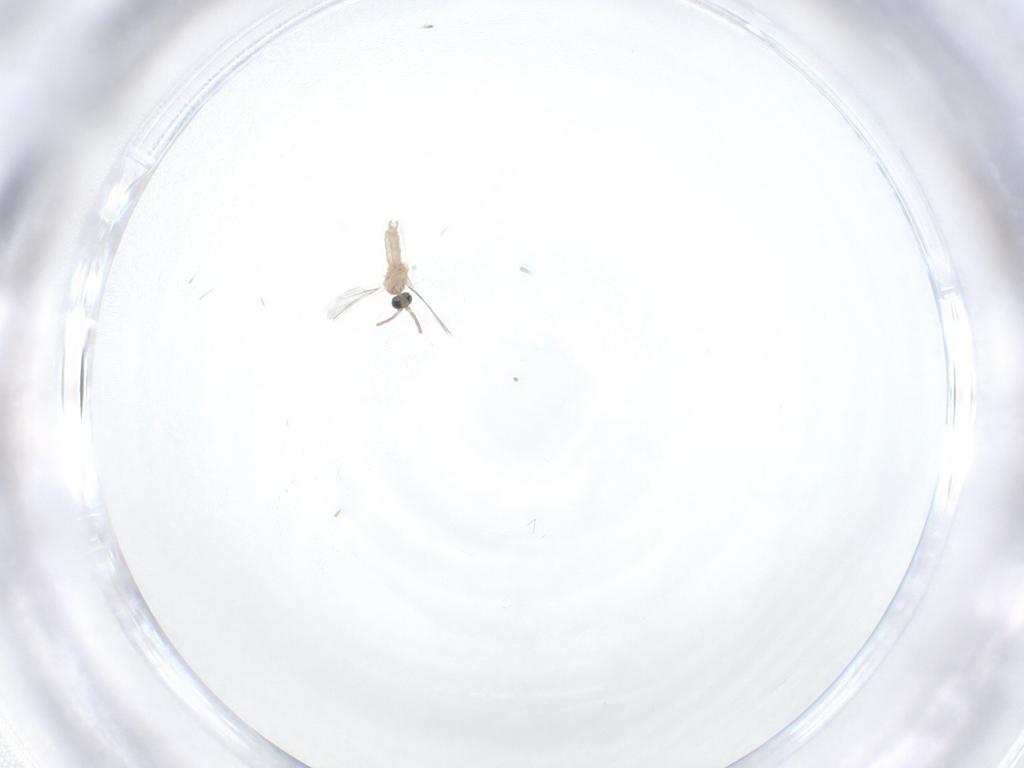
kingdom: Animalia
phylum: Arthropoda
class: Insecta
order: Diptera
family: Cecidomyiidae
